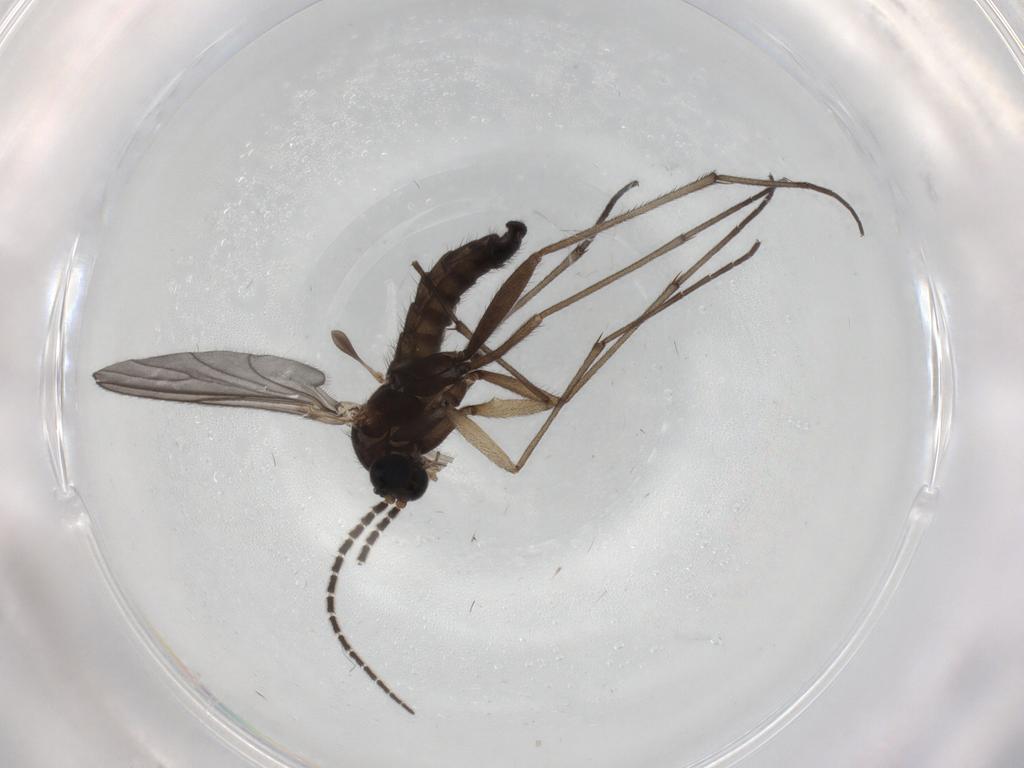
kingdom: Animalia
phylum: Arthropoda
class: Insecta
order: Diptera
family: Sciaridae
